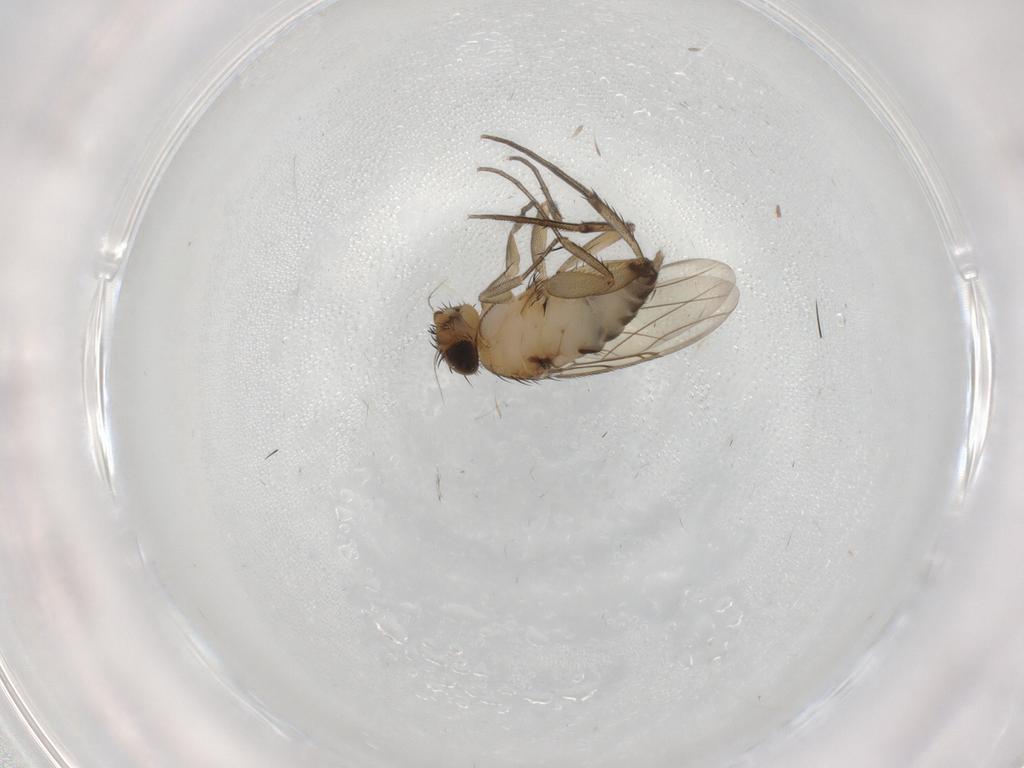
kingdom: Animalia
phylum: Arthropoda
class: Insecta
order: Diptera
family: Phoridae
